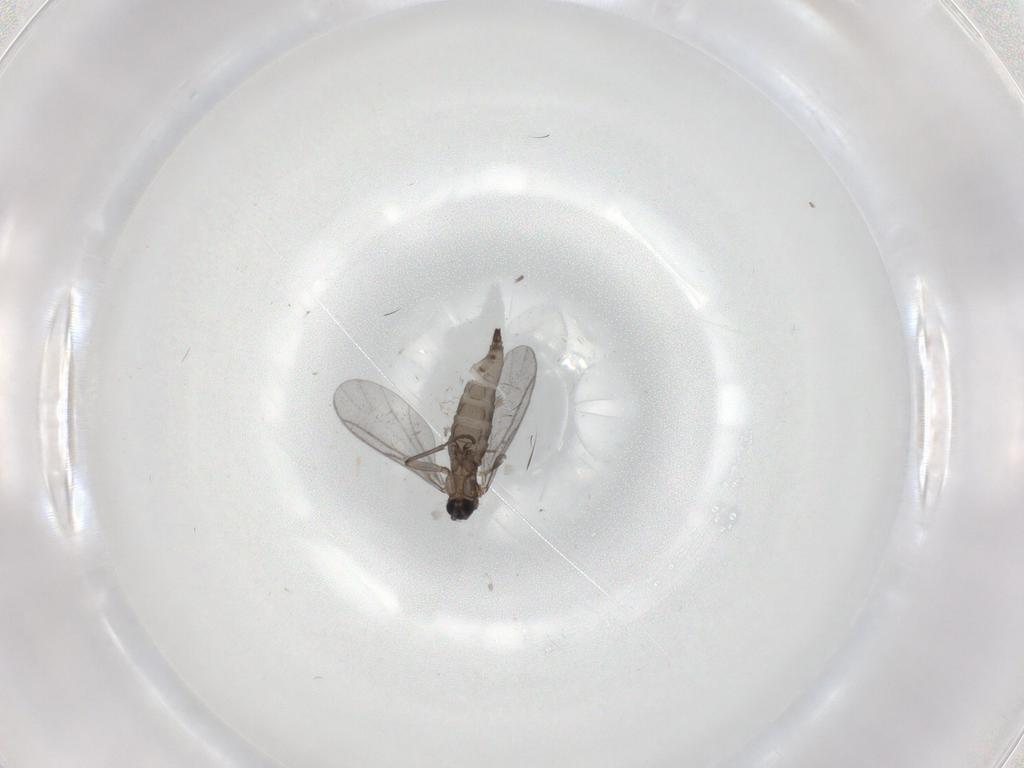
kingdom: Animalia
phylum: Arthropoda
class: Insecta
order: Diptera
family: Sciaridae
